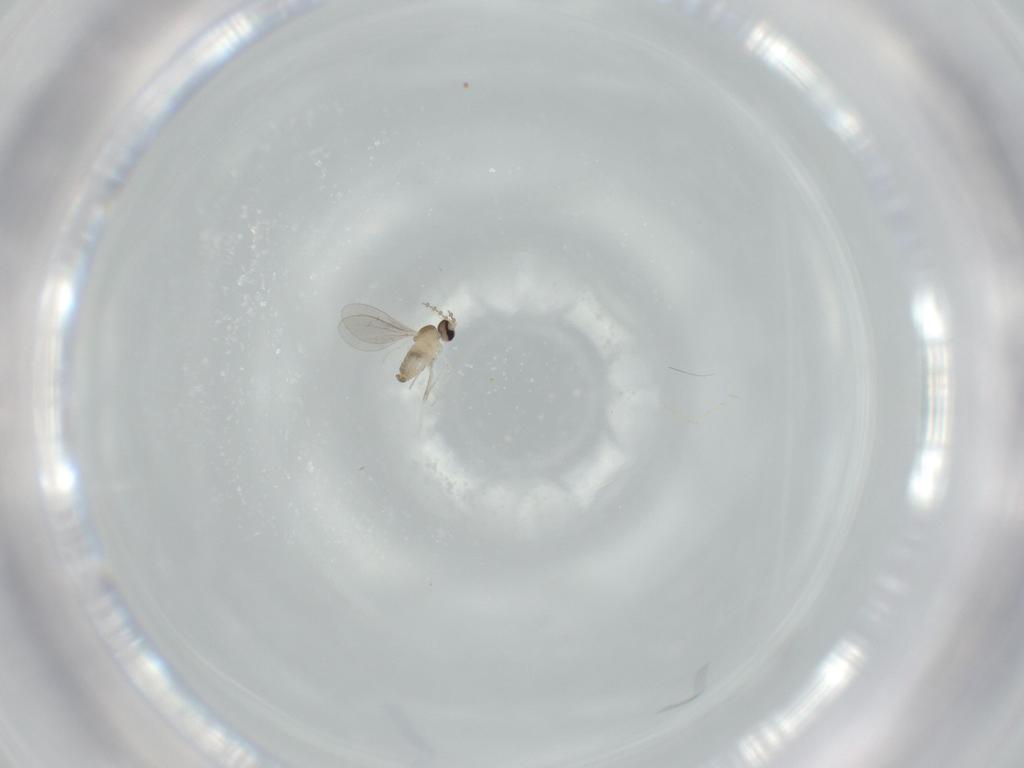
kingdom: Animalia
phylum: Arthropoda
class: Insecta
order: Diptera
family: Cecidomyiidae
